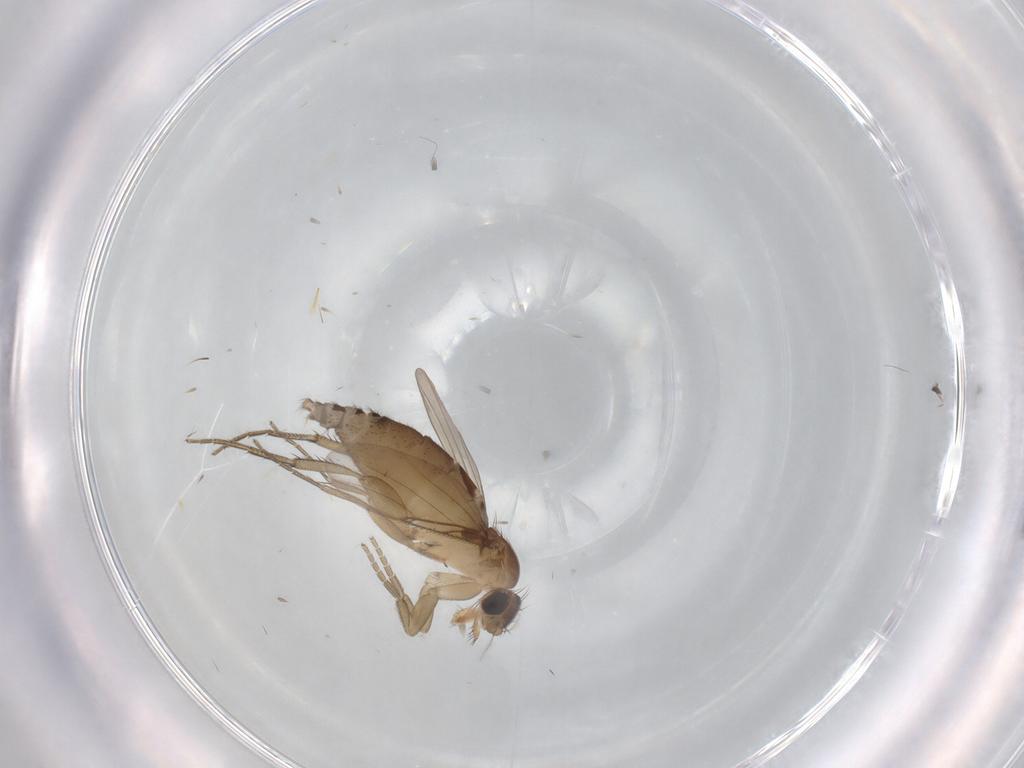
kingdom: Animalia
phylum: Arthropoda
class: Insecta
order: Diptera
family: Phoridae
